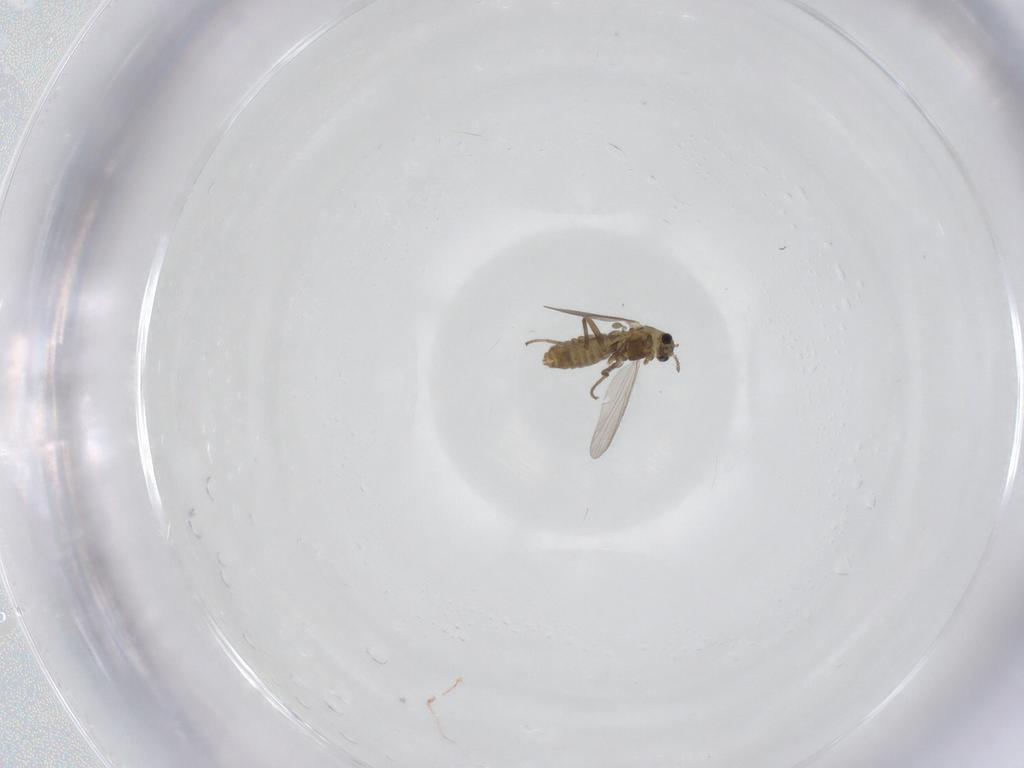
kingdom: Animalia
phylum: Arthropoda
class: Insecta
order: Diptera
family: Chironomidae
